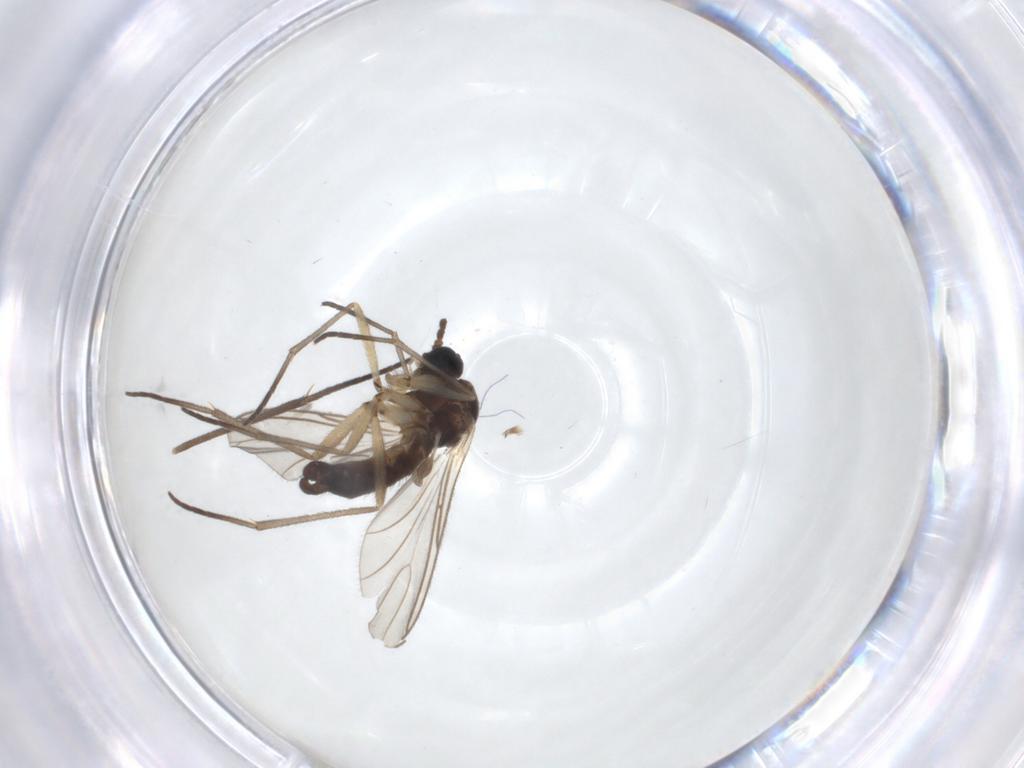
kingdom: Animalia
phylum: Arthropoda
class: Insecta
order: Diptera
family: Sciaridae
